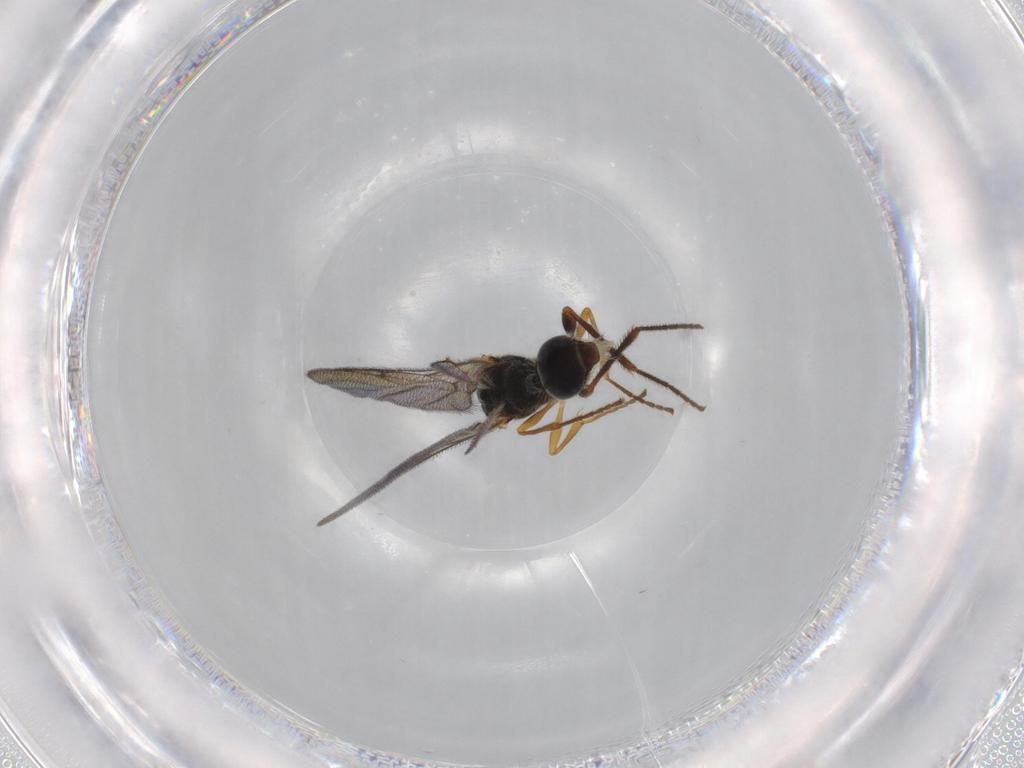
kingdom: Animalia
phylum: Arthropoda
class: Insecta
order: Hymenoptera
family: Diapriidae
